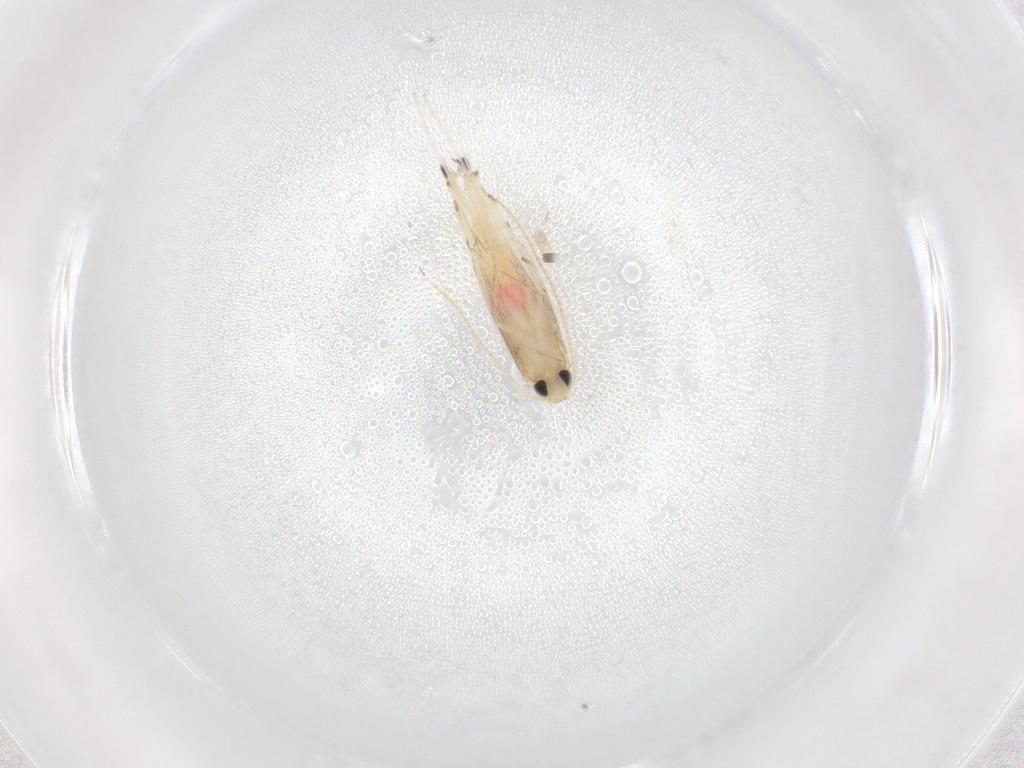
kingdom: Animalia
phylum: Arthropoda
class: Insecta
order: Lepidoptera
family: Gracillariidae
